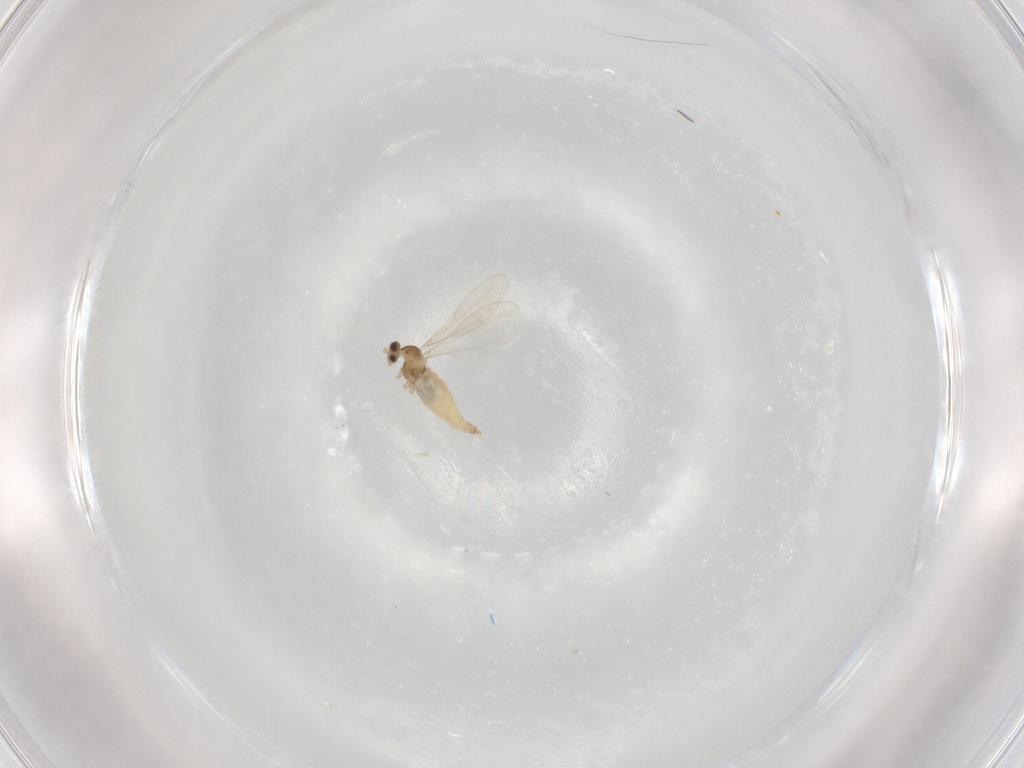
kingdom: Animalia
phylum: Arthropoda
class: Insecta
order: Diptera
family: Cecidomyiidae
